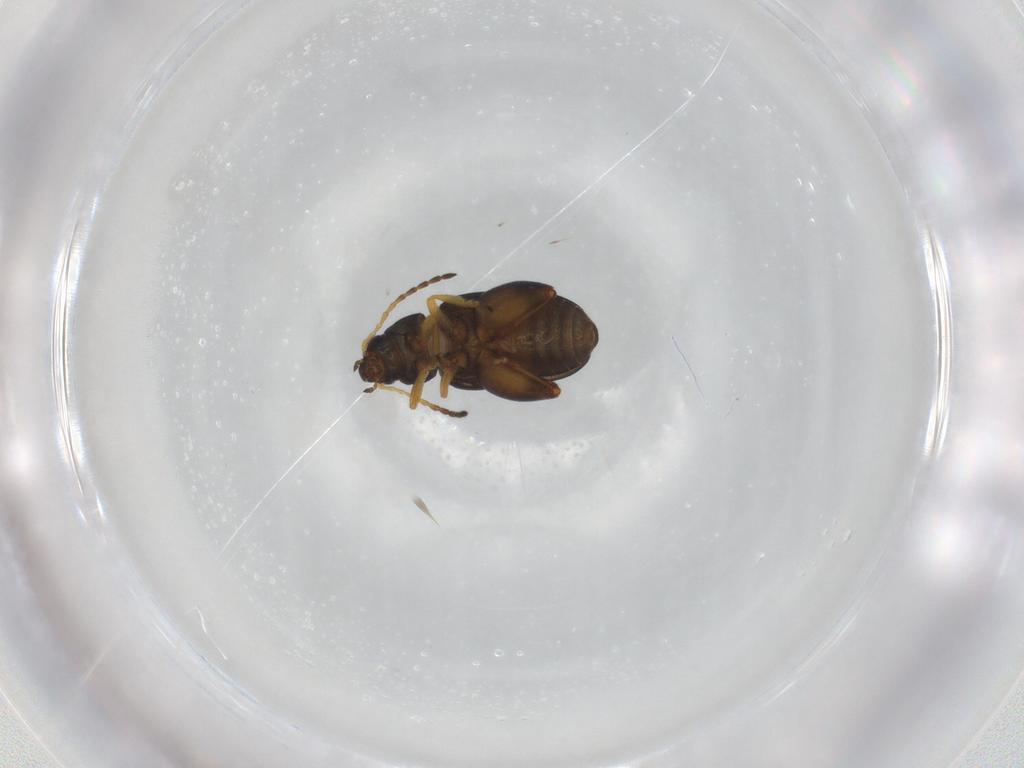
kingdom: Animalia
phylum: Arthropoda
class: Insecta
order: Coleoptera
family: Chrysomelidae
